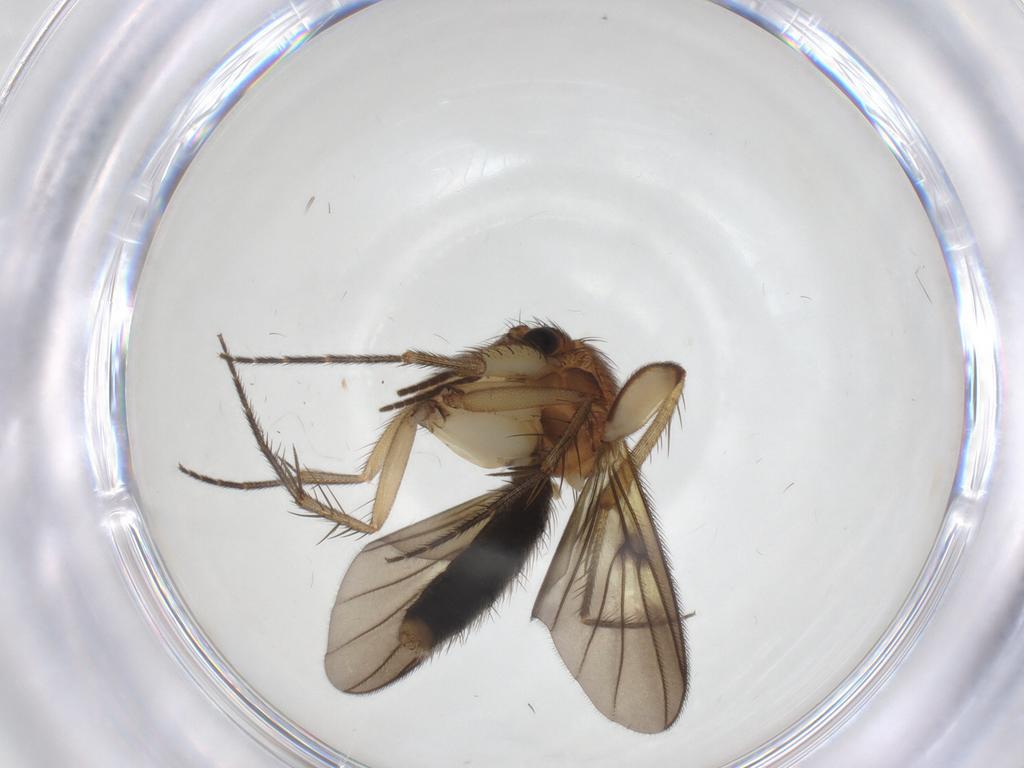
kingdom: Animalia
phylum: Arthropoda
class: Insecta
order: Diptera
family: Mycetophilidae
